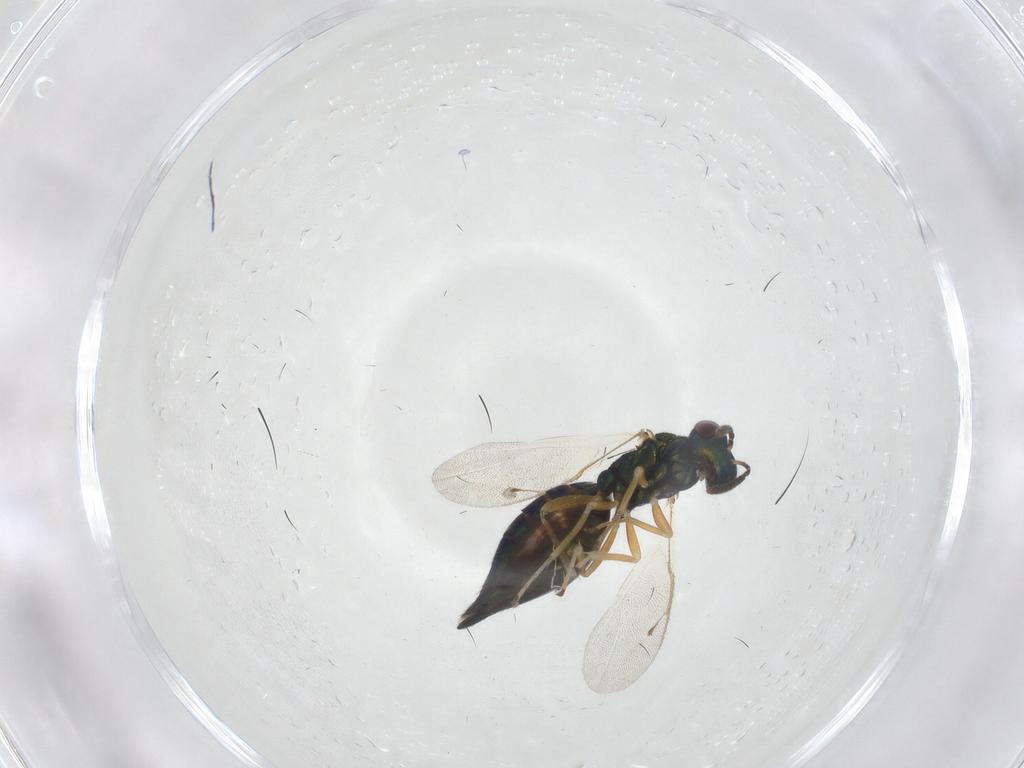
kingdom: Animalia
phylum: Arthropoda
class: Insecta
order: Hymenoptera
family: Pteromalidae
